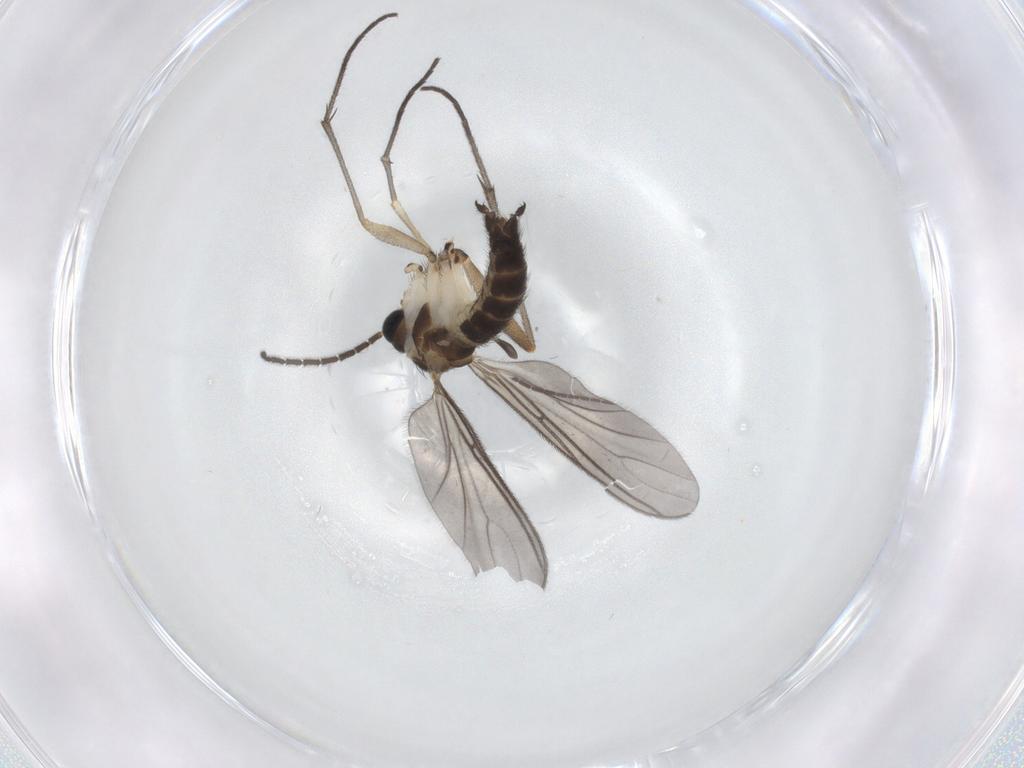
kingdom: Animalia
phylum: Arthropoda
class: Insecta
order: Diptera
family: Sciaridae
